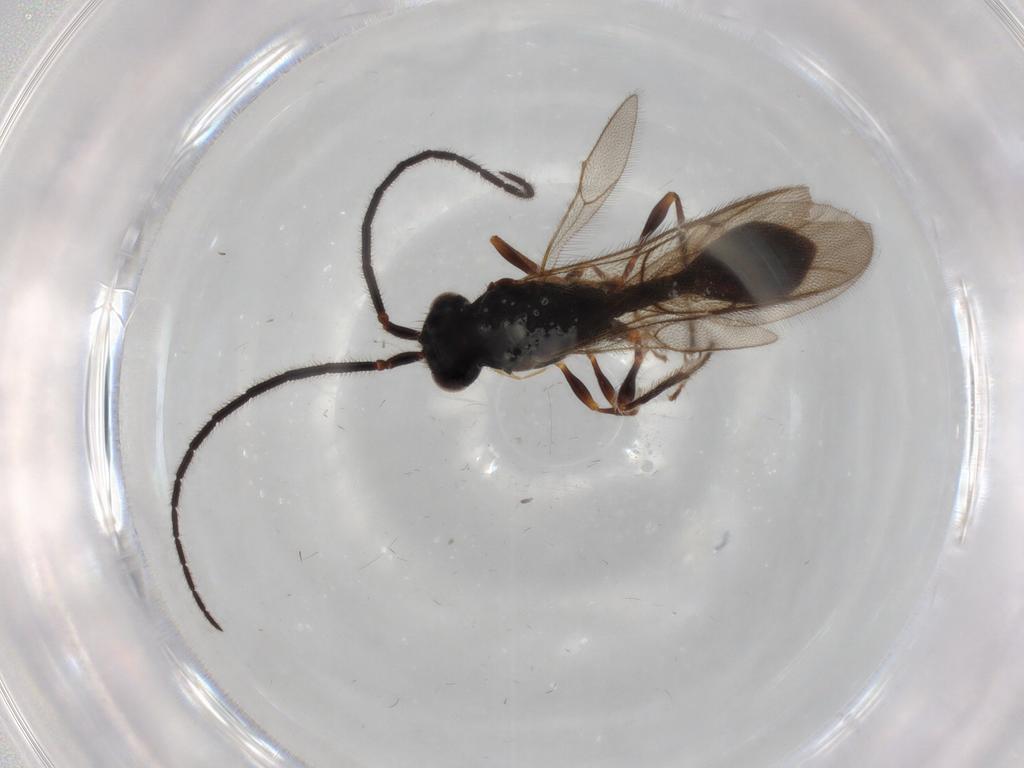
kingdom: Animalia
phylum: Arthropoda
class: Insecta
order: Hymenoptera
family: Diapriidae
